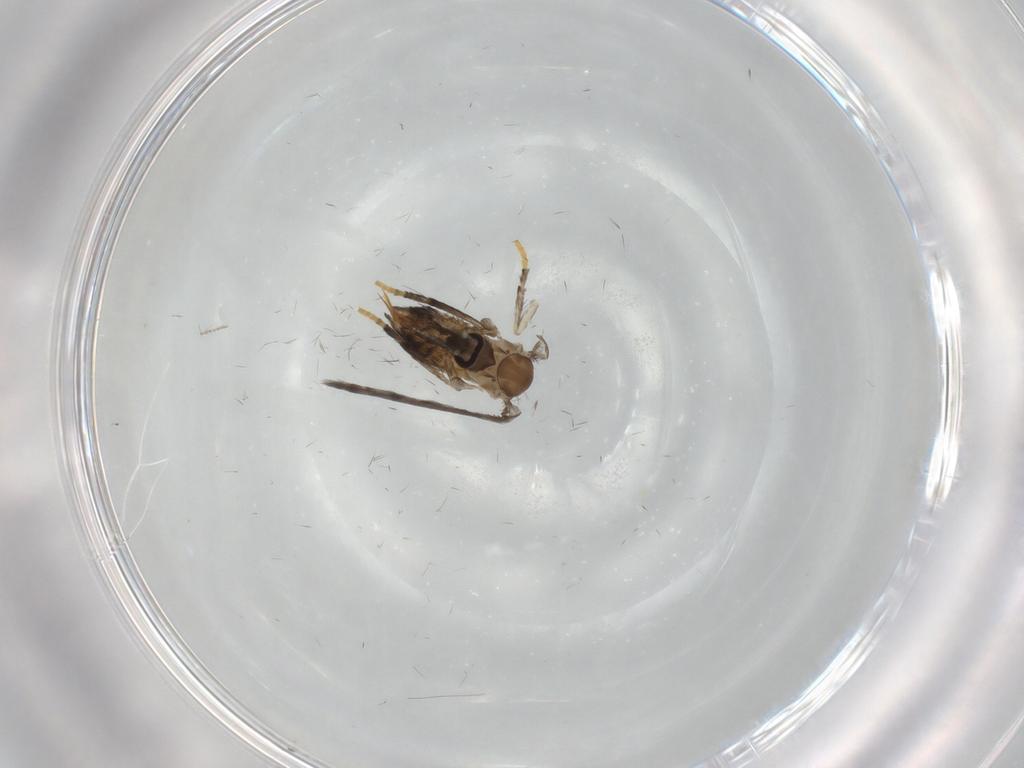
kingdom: Animalia
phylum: Arthropoda
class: Insecta
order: Diptera
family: Psychodidae
